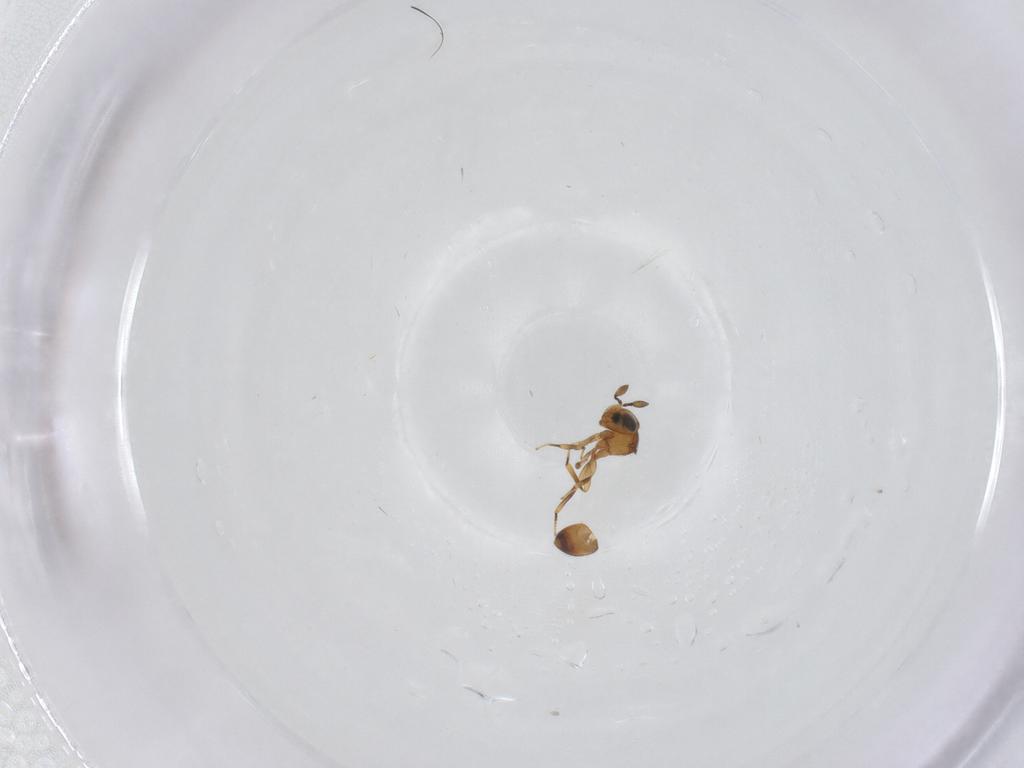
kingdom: Animalia
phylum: Arthropoda
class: Insecta
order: Hymenoptera
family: Scelionidae
